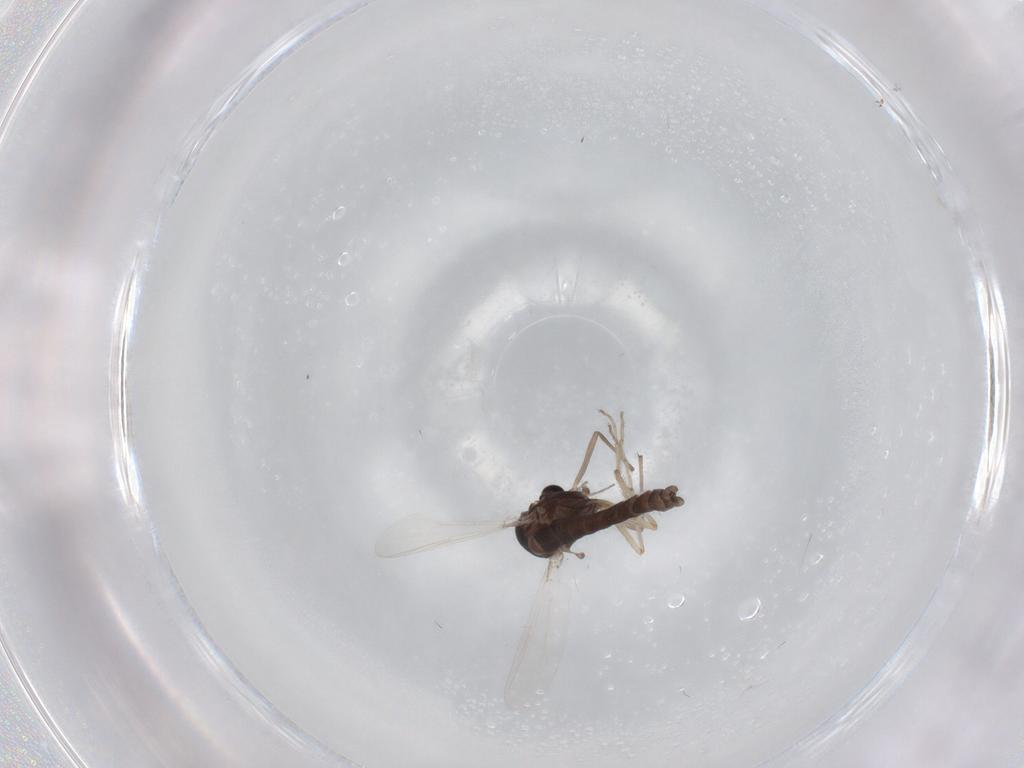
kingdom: Animalia
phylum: Arthropoda
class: Insecta
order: Diptera
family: Chironomidae
